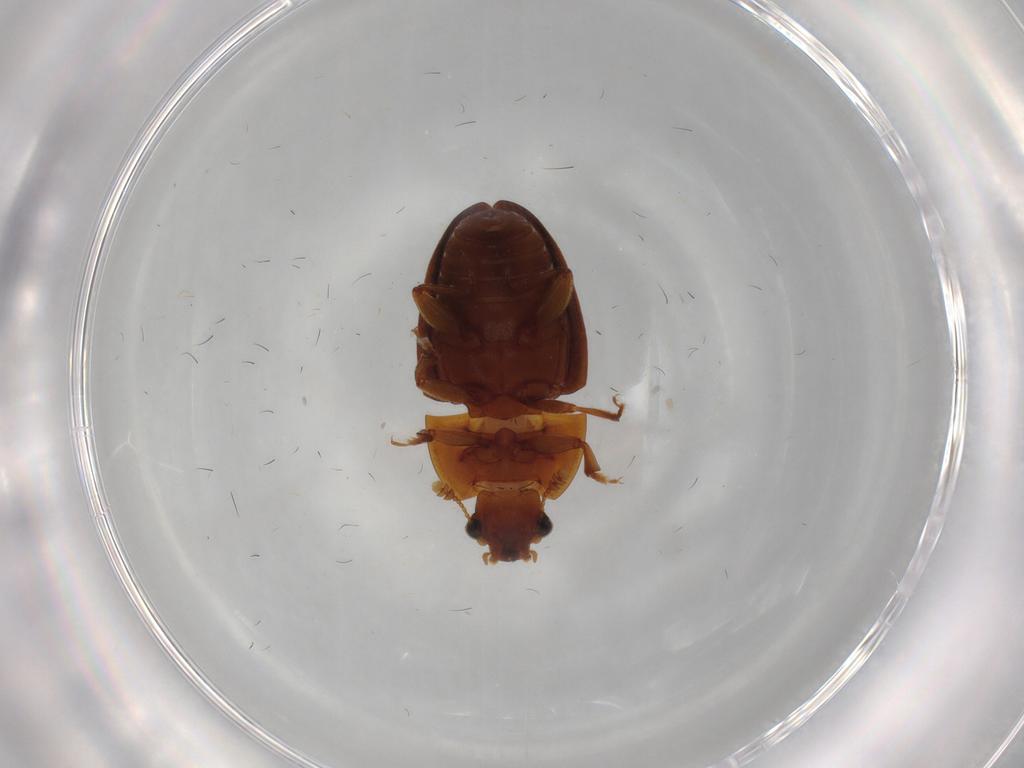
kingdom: Animalia
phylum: Arthropoda
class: Insecta
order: Coleoptera
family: Nitidulidae
